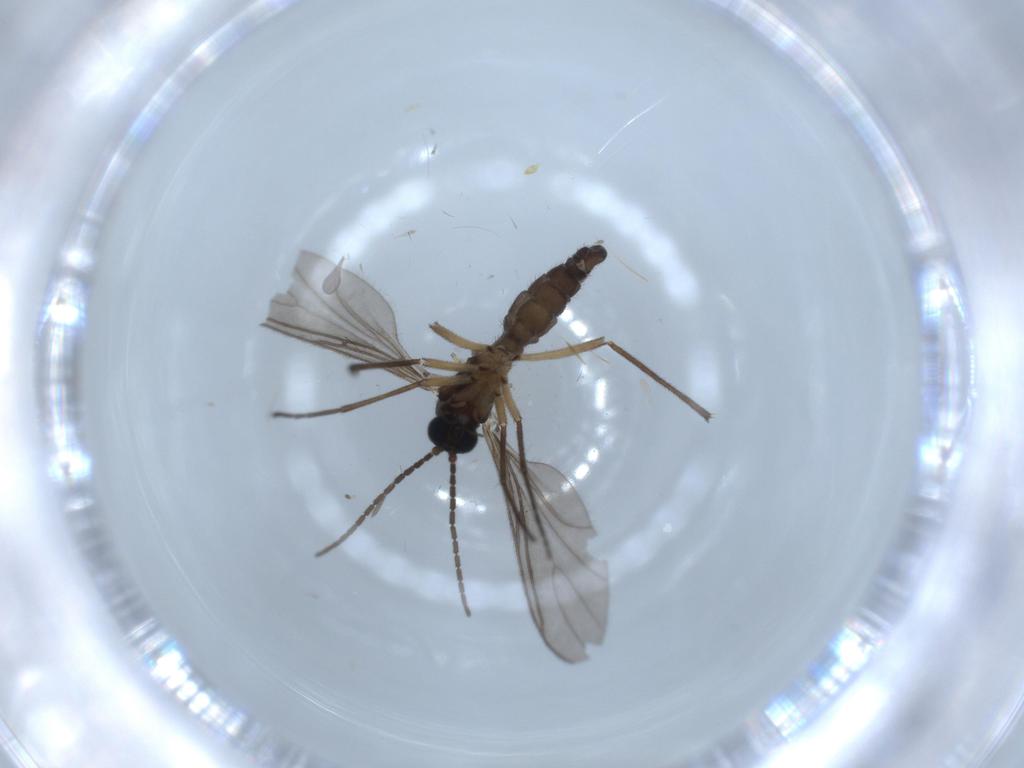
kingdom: Animalia
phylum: Arthropoda
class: Insecta
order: Diptera
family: Sciaridae
